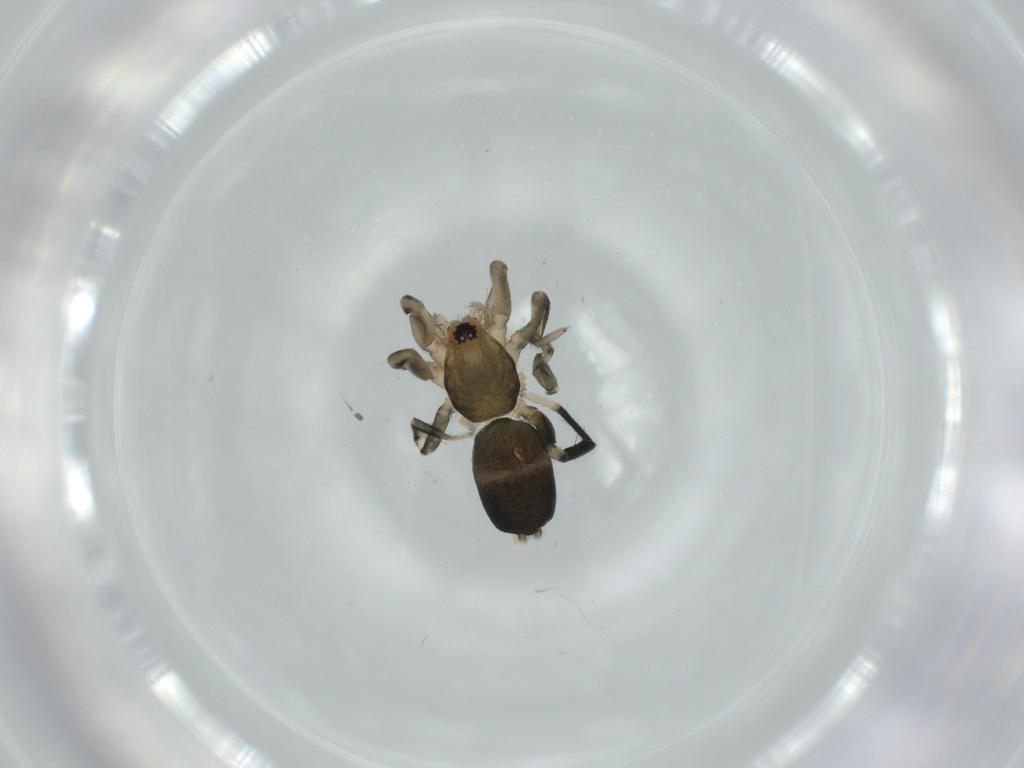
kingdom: Animalia
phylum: Arthropoda
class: Arachnida
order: Araneae
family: Gnaphosidae
